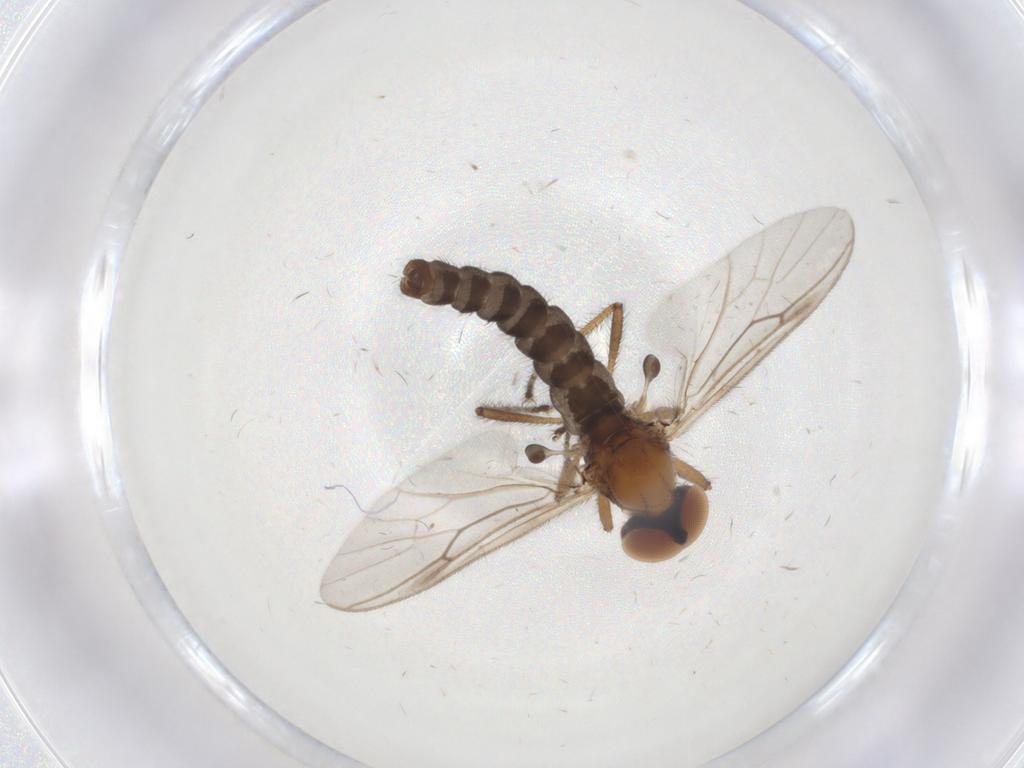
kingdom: Animalia
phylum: Arthropoda
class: Insecta
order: Diptera
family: Bibionidae
